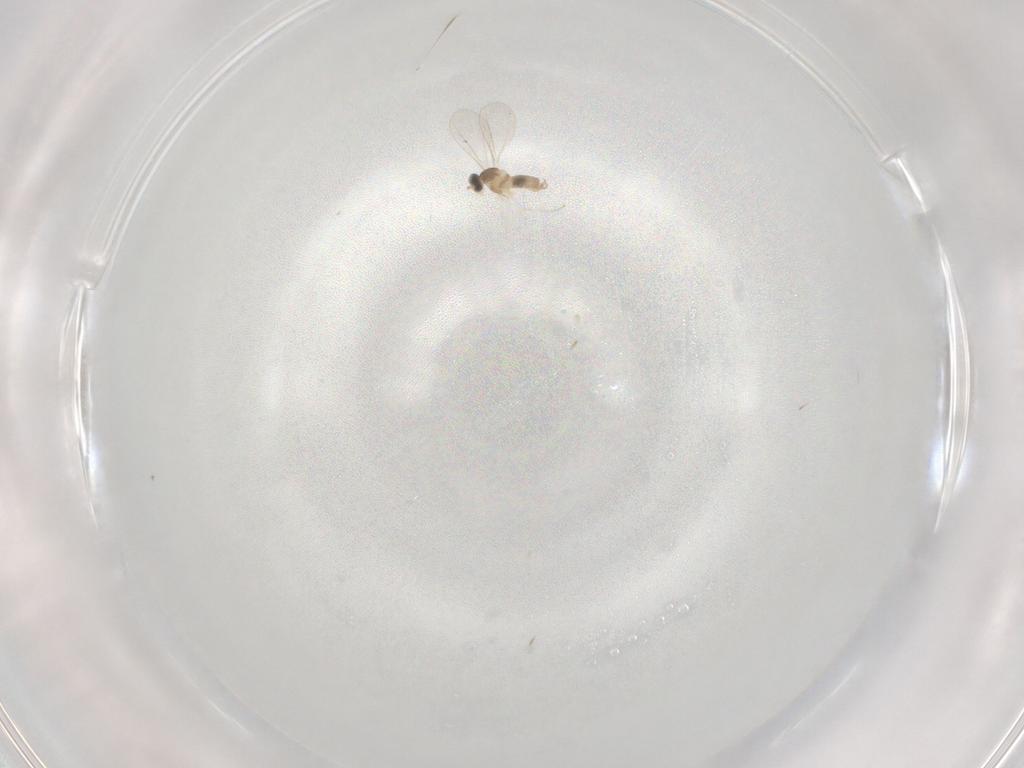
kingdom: Animalia
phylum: Arthropoda
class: Insecta
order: Diptera
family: Cecidomyiidae
